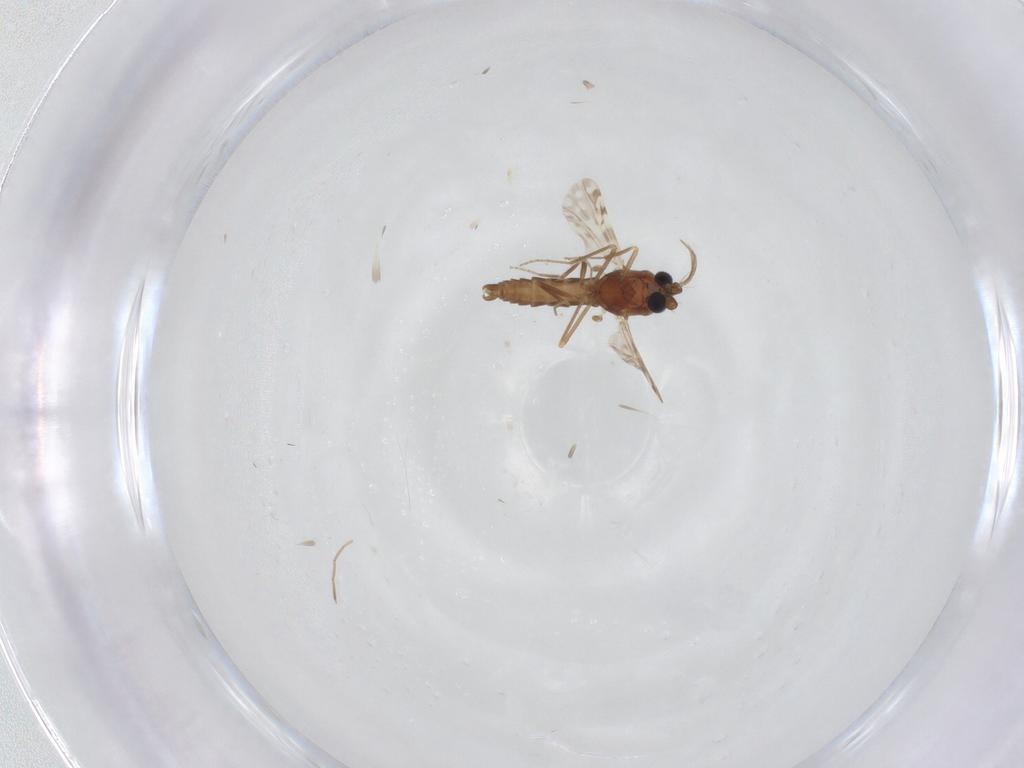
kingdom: Animalia
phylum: Arthropoda
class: Insecta
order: Diptera
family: Chironomidae
